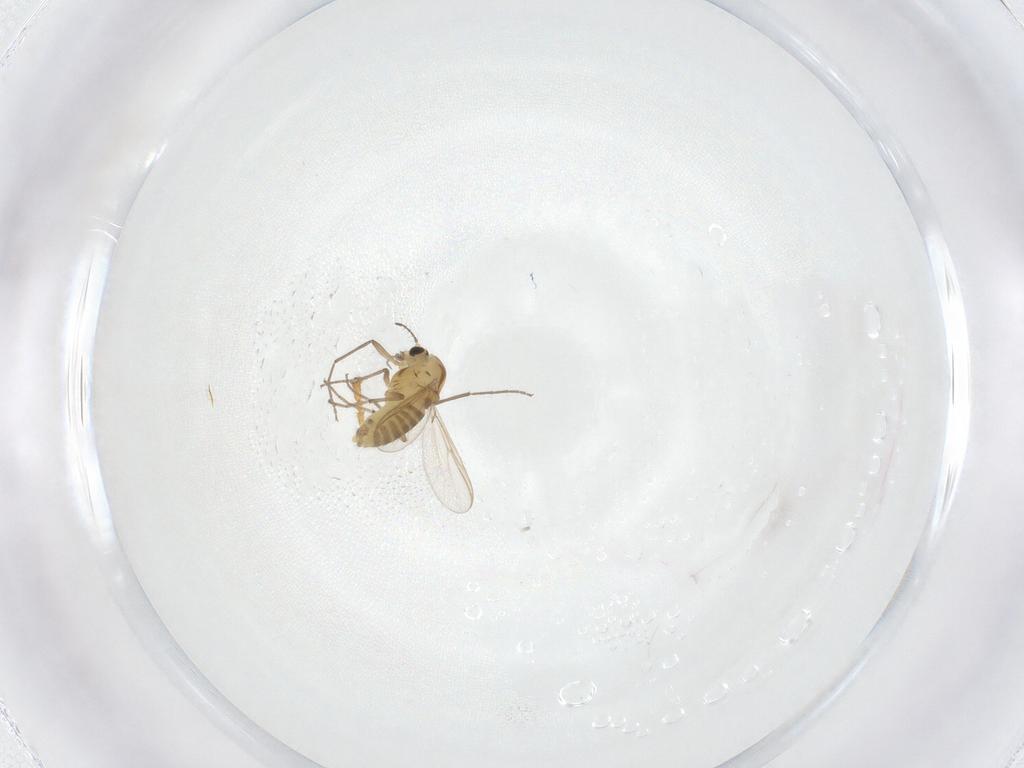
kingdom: Animalia
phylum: Arthropoda
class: Insecta
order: Diptera
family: Chironomidae
